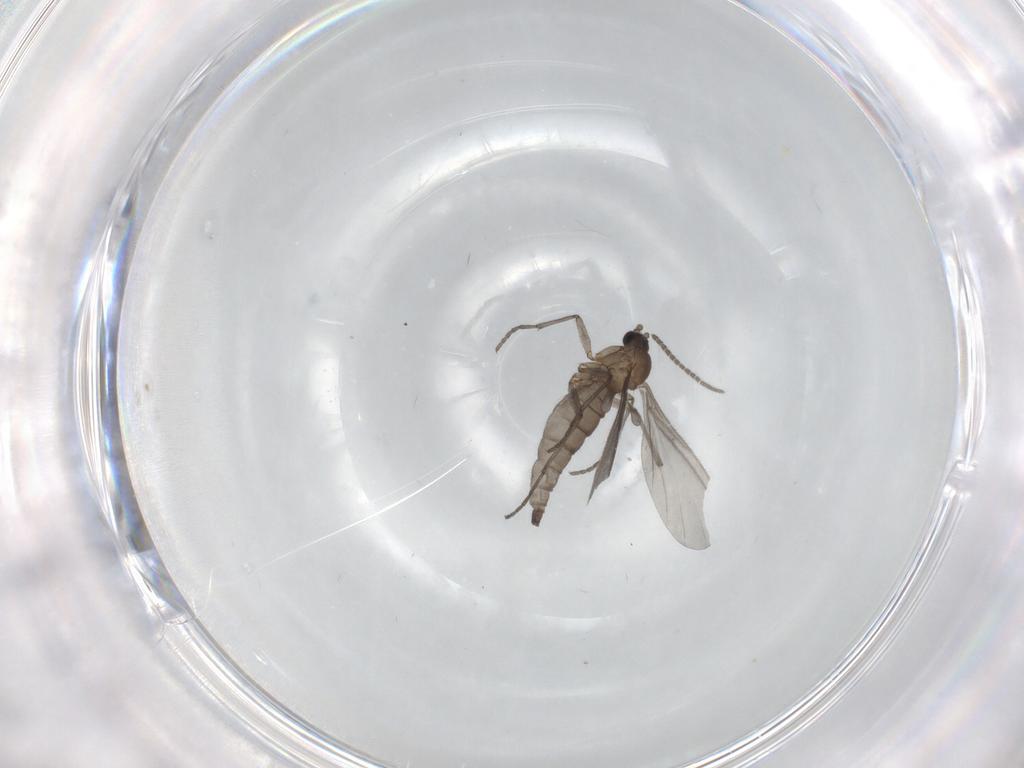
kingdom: Animalia
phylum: Arthropoda
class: Insecta
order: Diptera
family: Sciaridae
